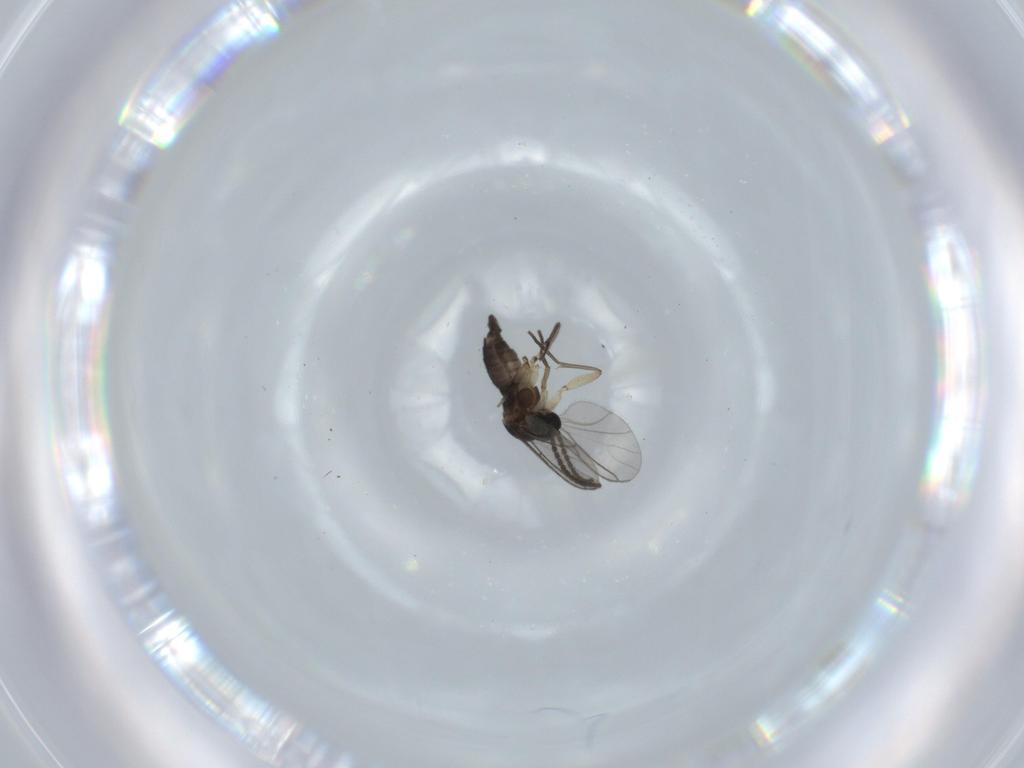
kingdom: Animalia
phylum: Arthropoda
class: Insecta
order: Diptera
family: Sciaridae
